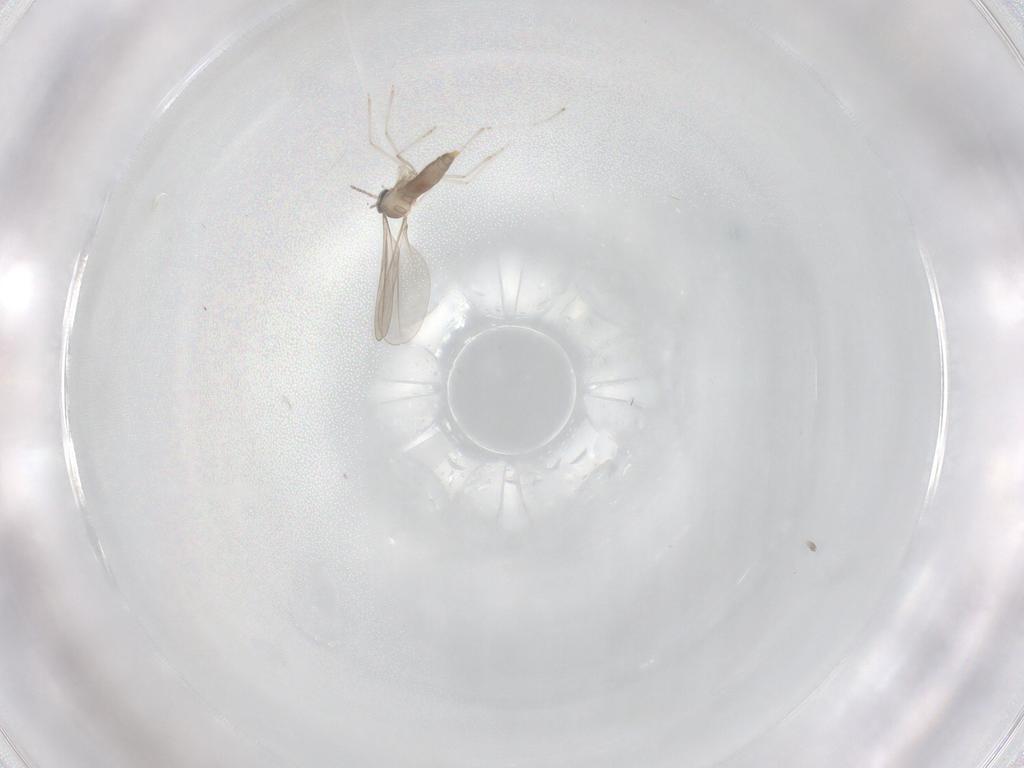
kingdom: Animalia
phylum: Arthropoda
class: Insecta
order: Diptera
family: Cecidomyiidae
